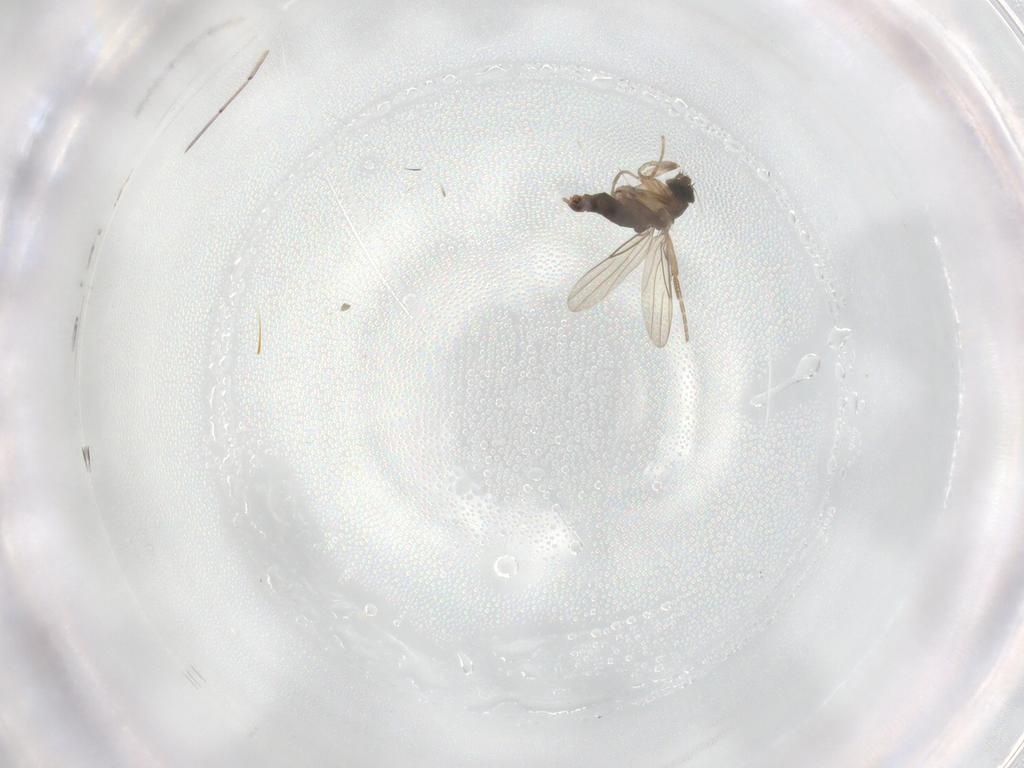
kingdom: Animalia
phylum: Arthropoda
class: Insecta
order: Diptera
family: Phoridae
